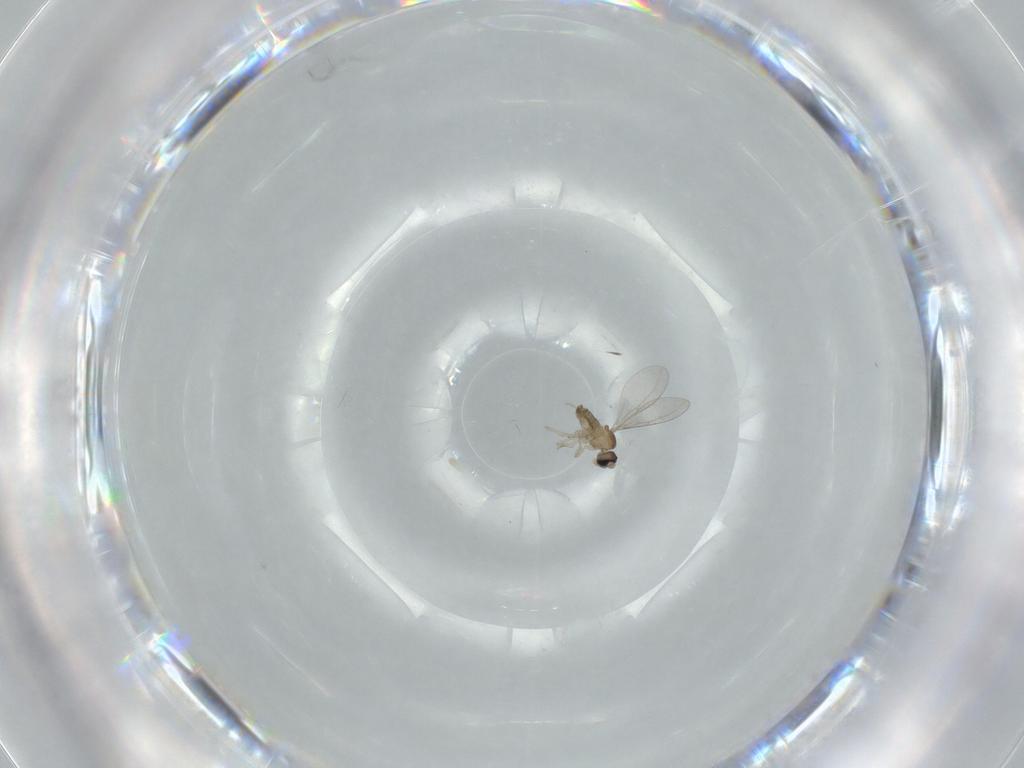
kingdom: Animalia
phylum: Arthropoda
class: Insecta
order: Diptera
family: Cecidomyiidae
